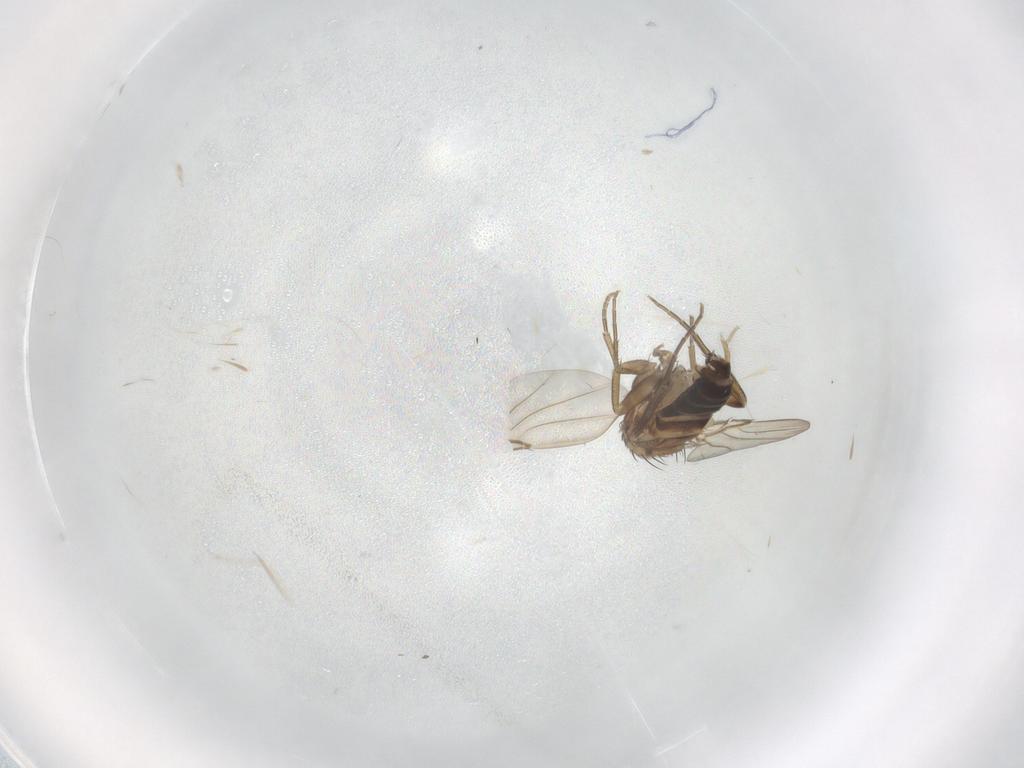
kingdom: Animalia
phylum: Arthropoda
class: Insecta
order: Diptera
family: Phoridae
